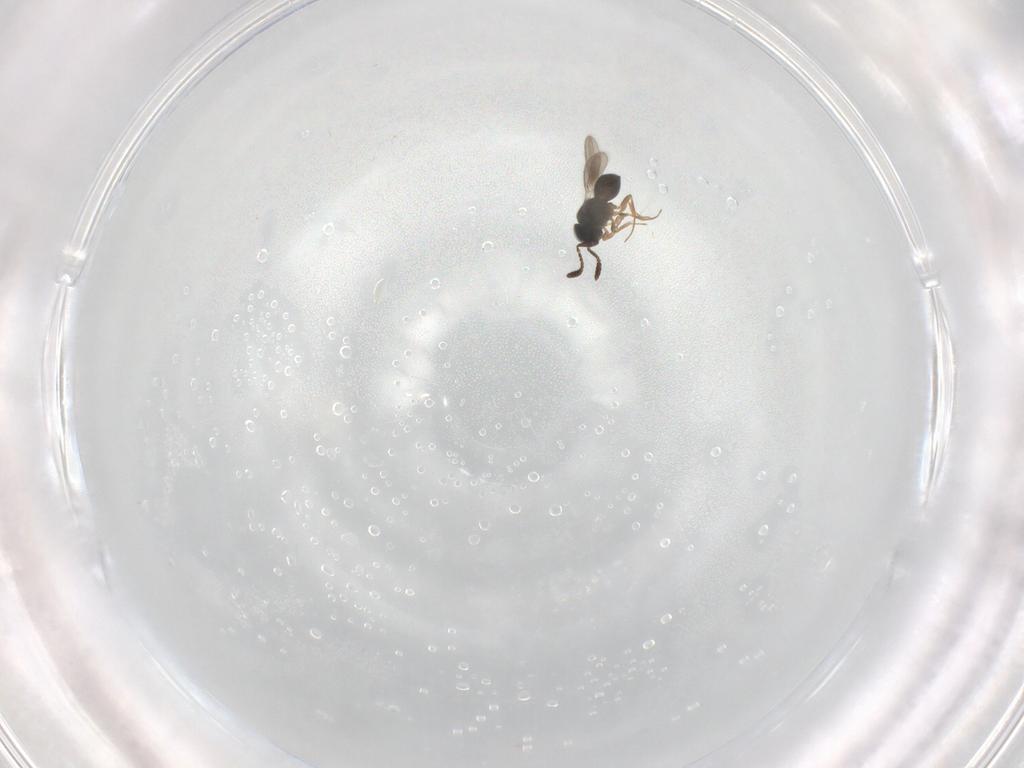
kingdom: Animalia
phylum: Arthropoda
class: Insecta
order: Hymenoptera
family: Scelionidae
